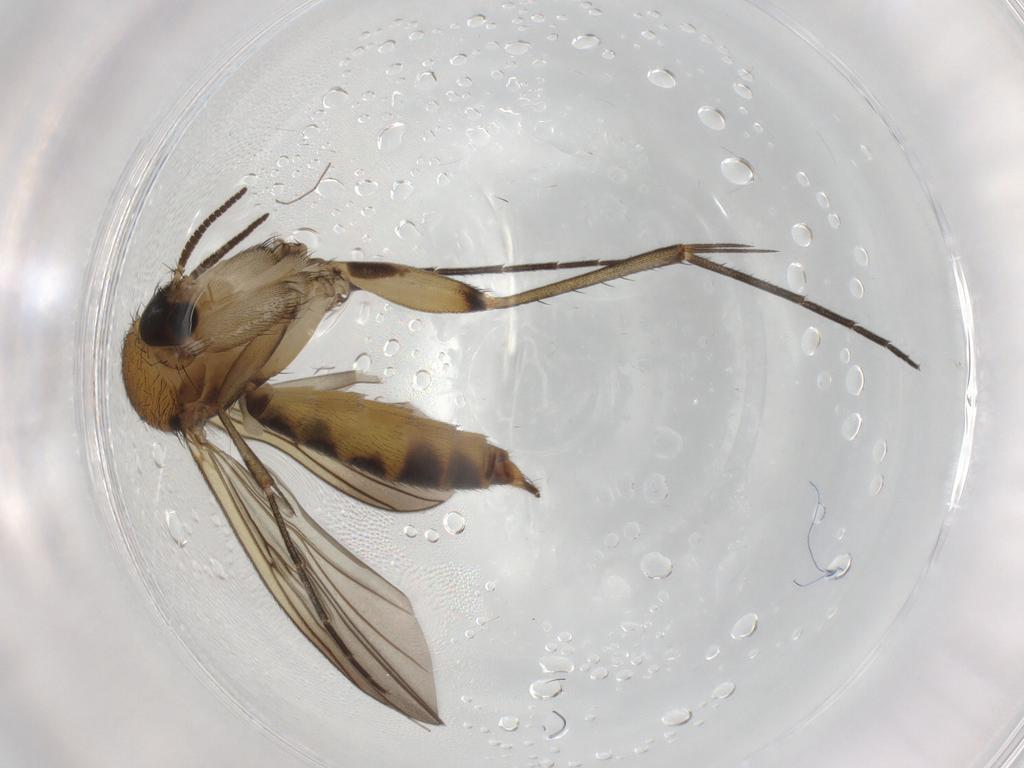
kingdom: Animalia
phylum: Arthropoda
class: Insecta
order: Diptera
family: Mycetophilidae
